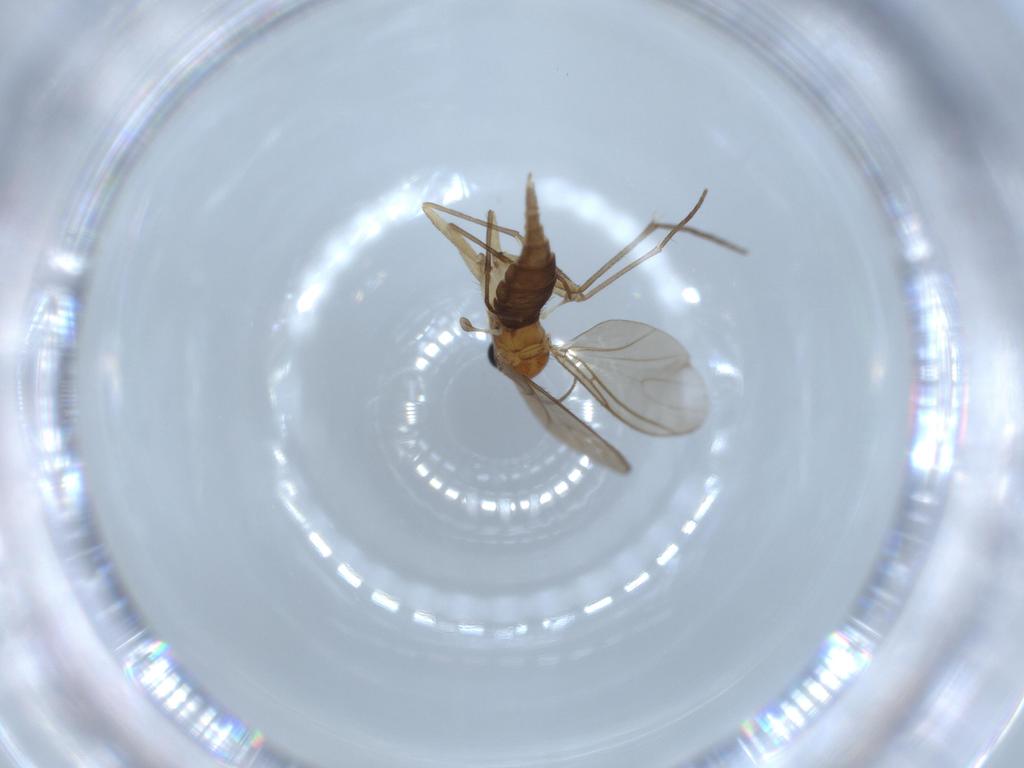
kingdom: Animalia
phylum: Arthropoda
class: Insecta
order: Diptera
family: Sciaridae
